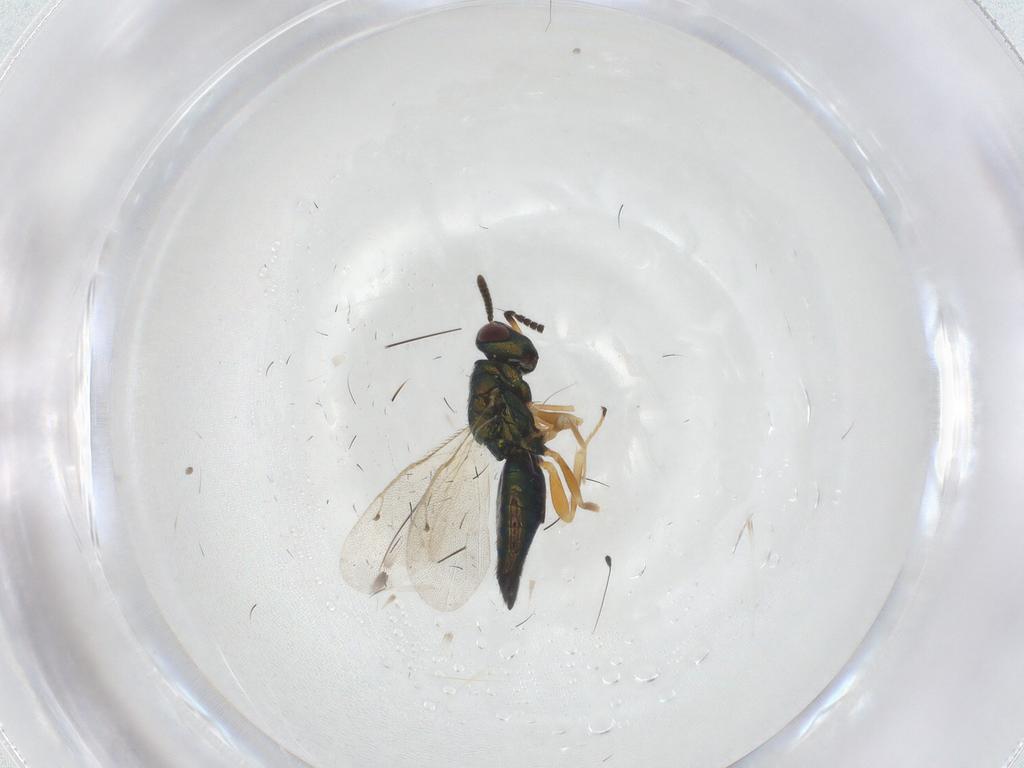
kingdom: Animalia
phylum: Arthropoda
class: Insecta
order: Hymenoptera
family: Pteromalidae
